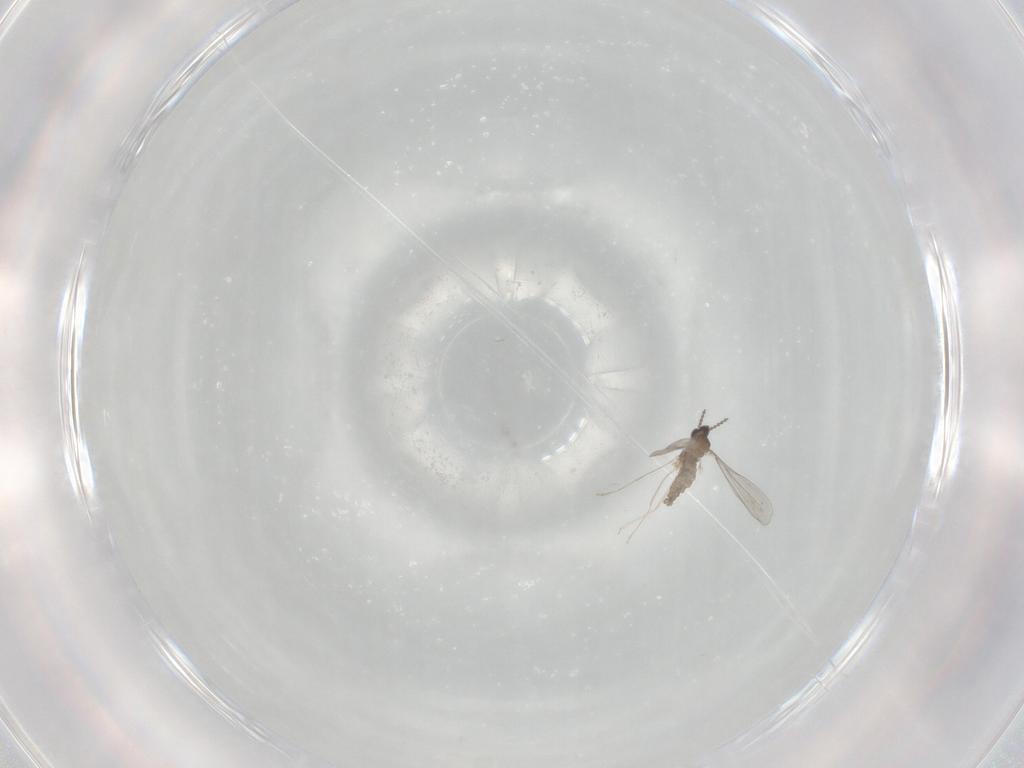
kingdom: Animalia
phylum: Arthropoda
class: Insecta
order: Diptera
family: Cecidomyiidae
